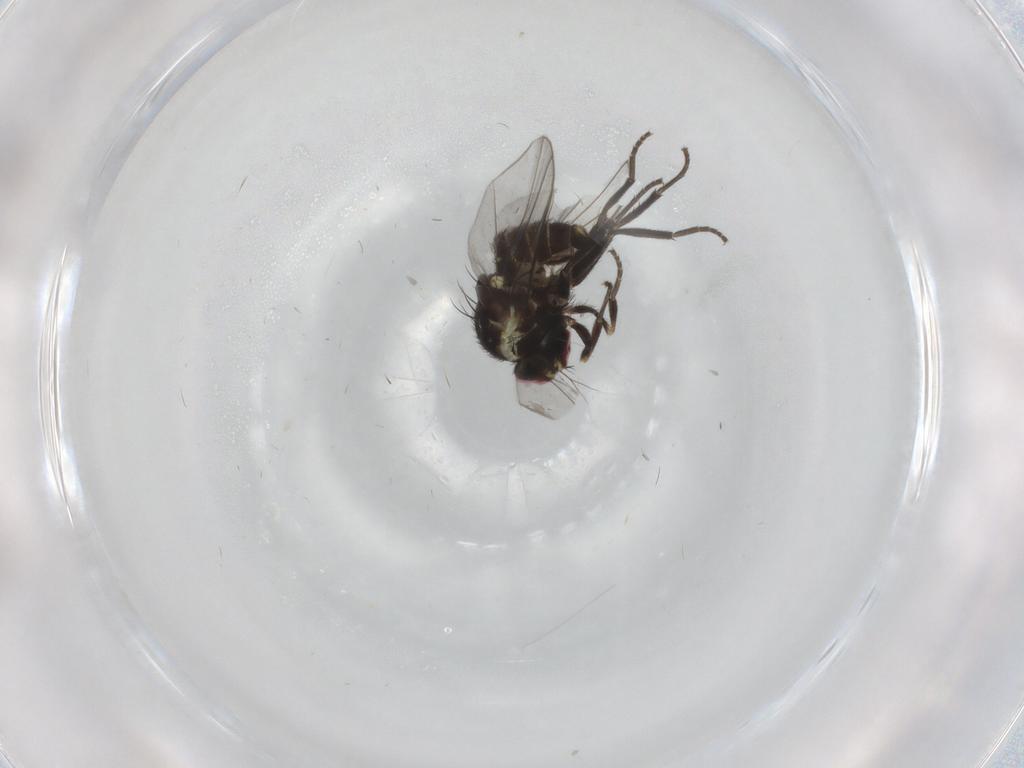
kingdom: Animalia
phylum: Arthropoda
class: Insecta
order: Diptera
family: Agromyzidae
